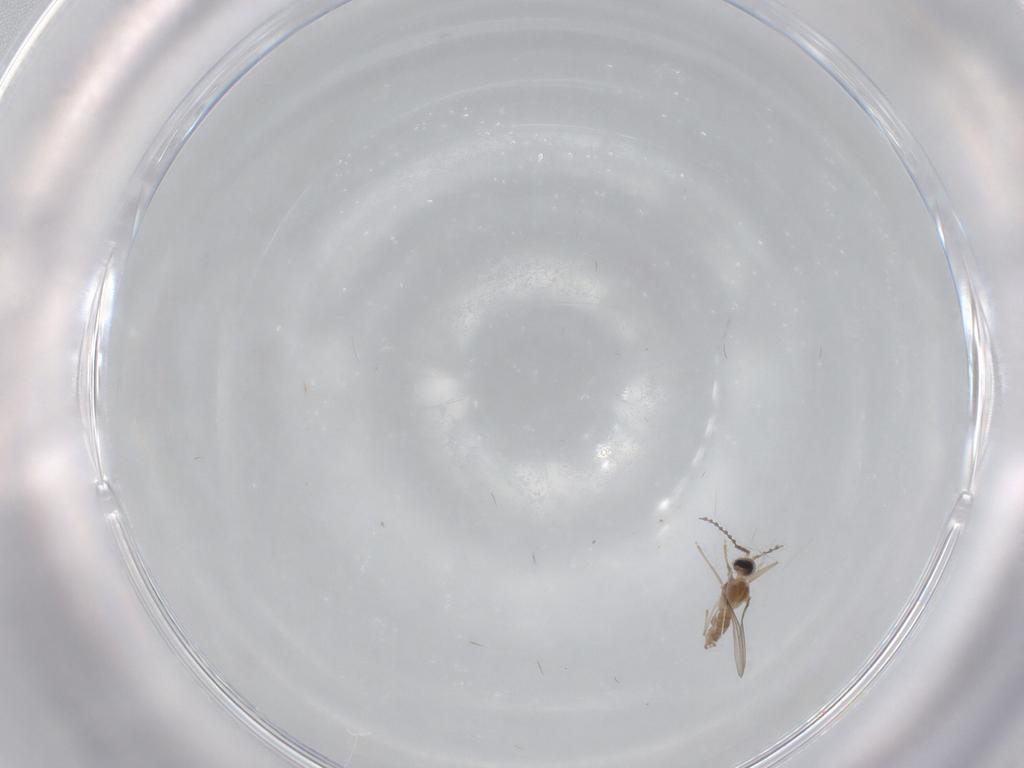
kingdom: Animalia
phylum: Arthropoda
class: Insecta
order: Diptera
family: Cecidomyiidae
